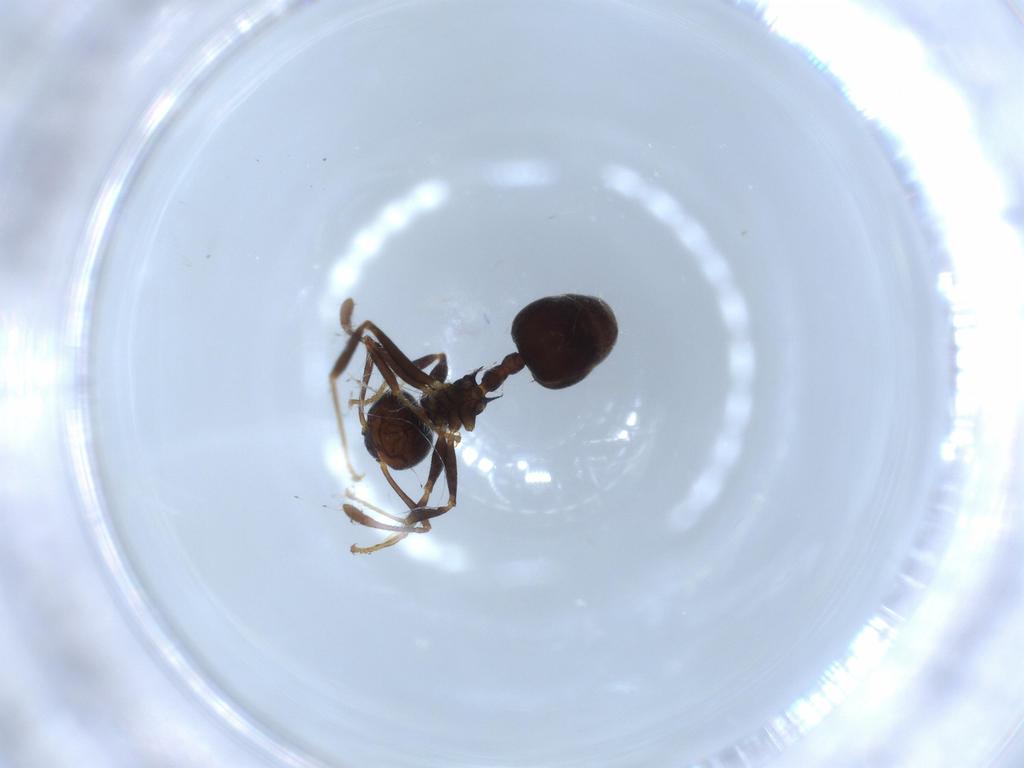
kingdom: Animalia
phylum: Arthropoda
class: Insecta
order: Hymenoptera
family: Formicidae
